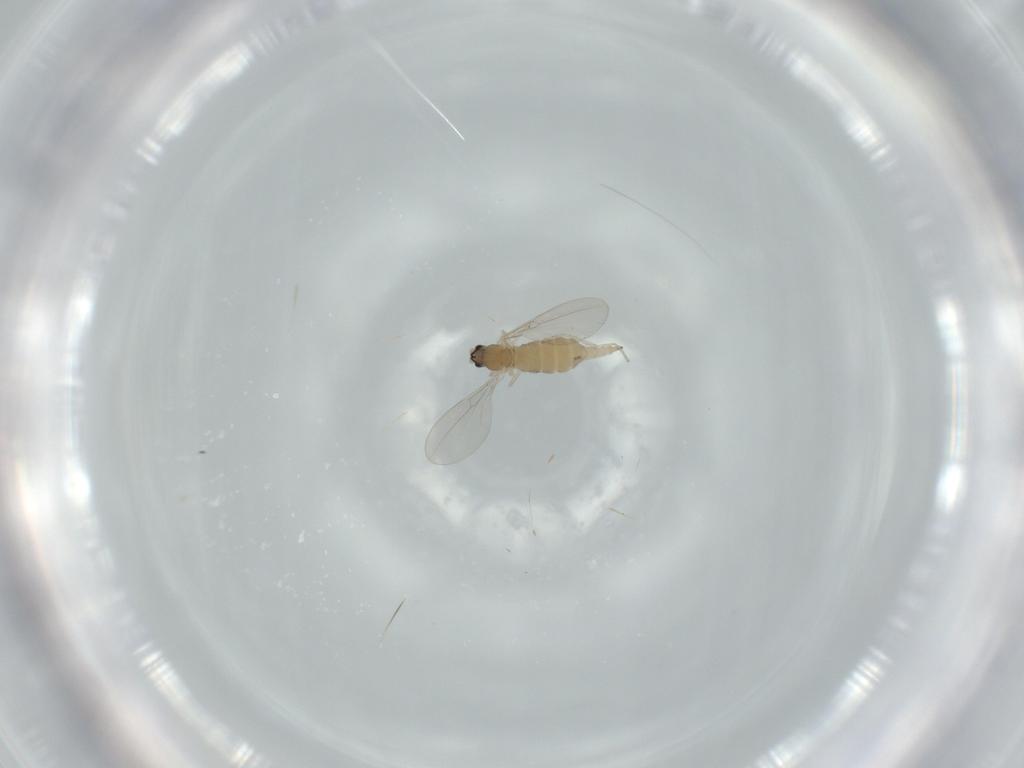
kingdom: Animalia
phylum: Arthropoda
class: Insecta
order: Diptera
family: Cecidomyiidae
